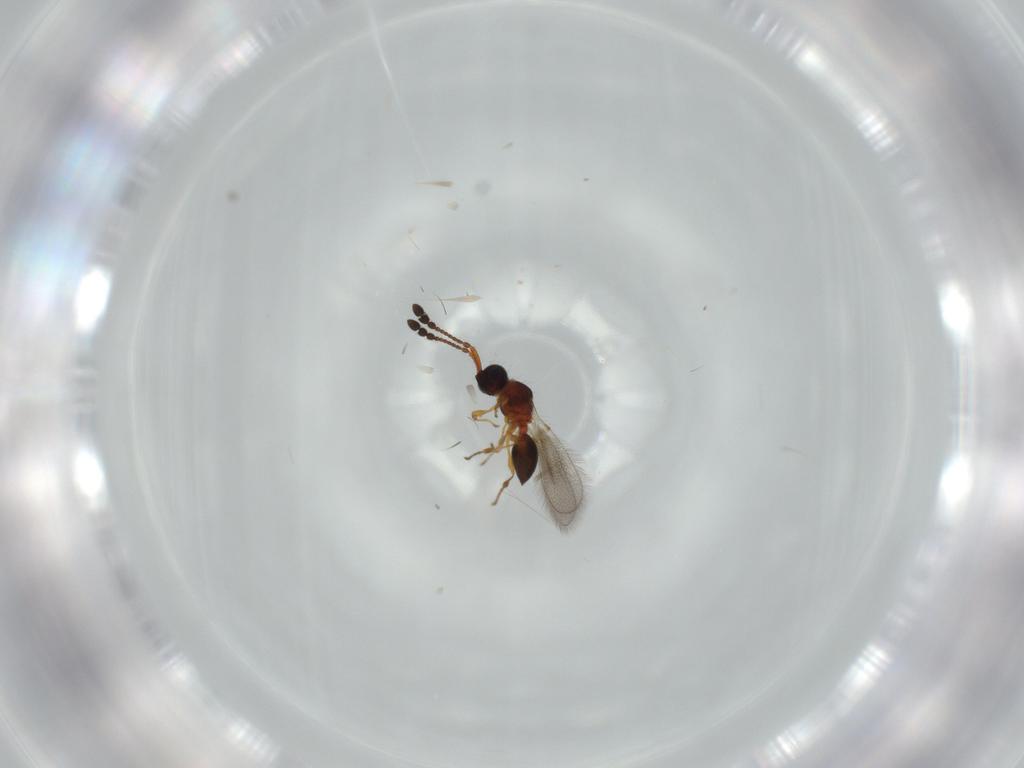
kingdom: Animalia
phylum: Arthropoda
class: Insecta
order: Hymenoptera
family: Diapriidae
